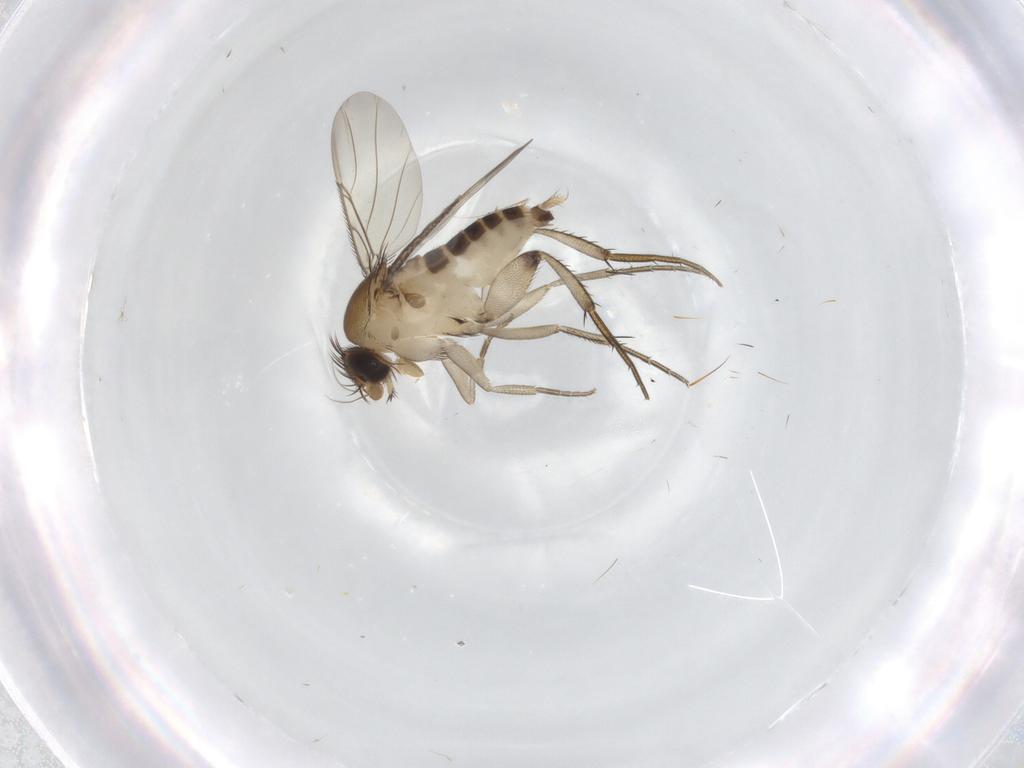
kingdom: Animalia
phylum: Arthropoda
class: Insecta
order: Diptera
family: Phoridae
